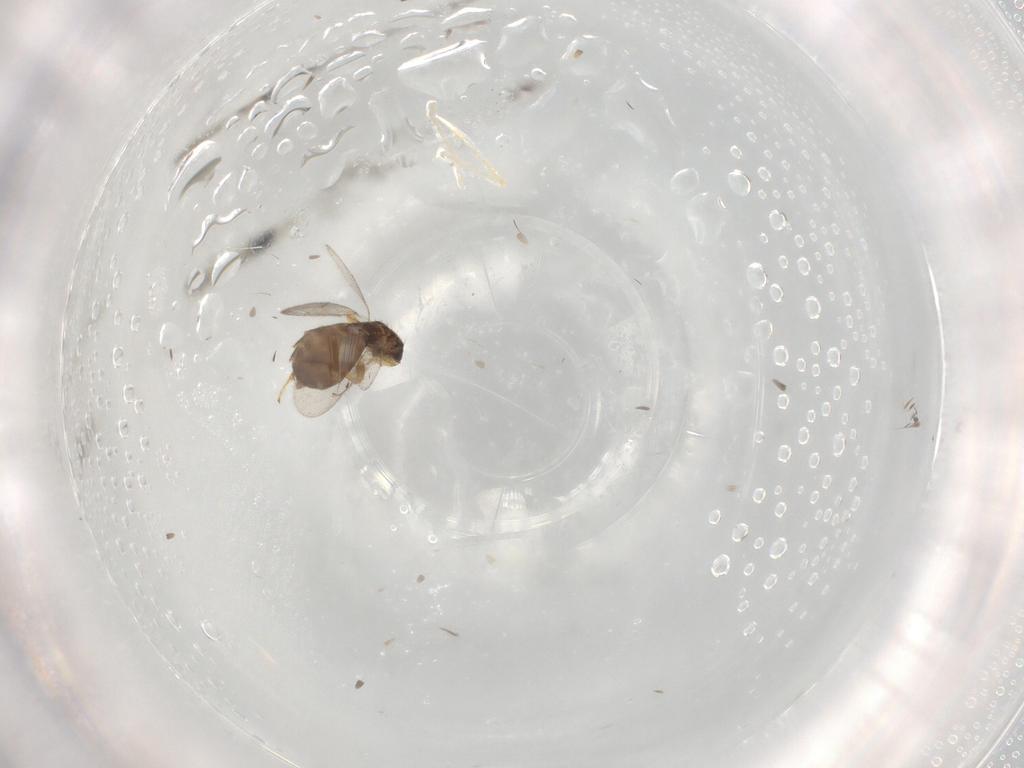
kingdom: Animalia
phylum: Arthropoda
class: Insecta
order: Hymenoptera
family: Eulophidae
